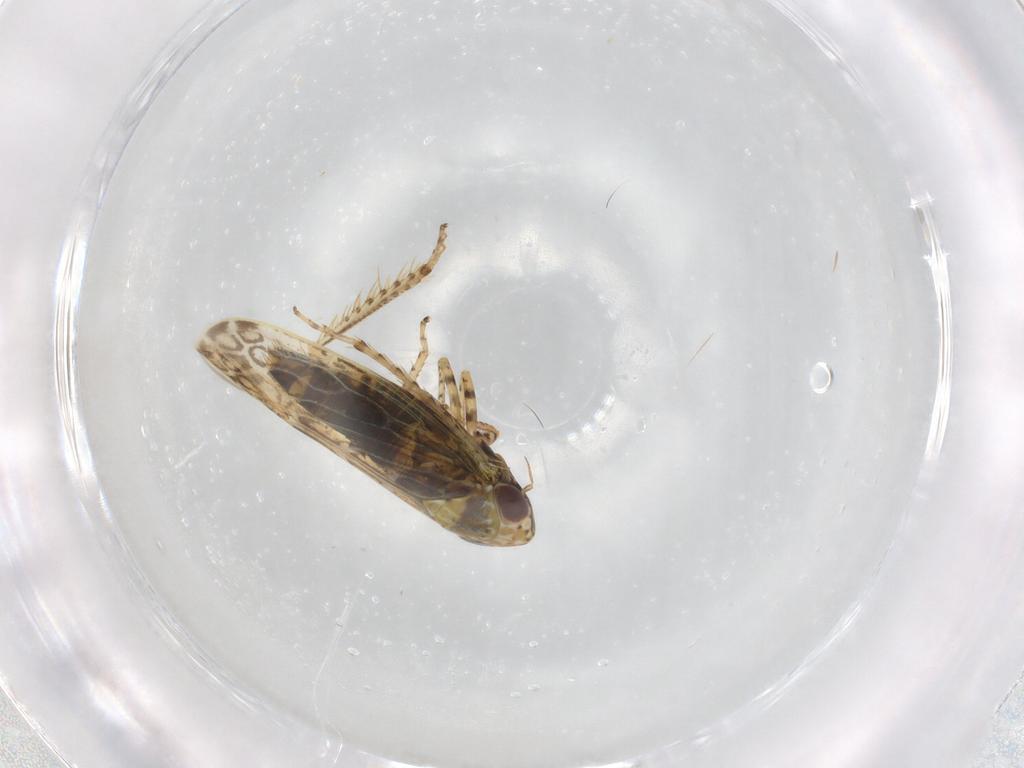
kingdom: Animalia
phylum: Arthropoda
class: Insecta
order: Hemiptera
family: Cicadellidae
